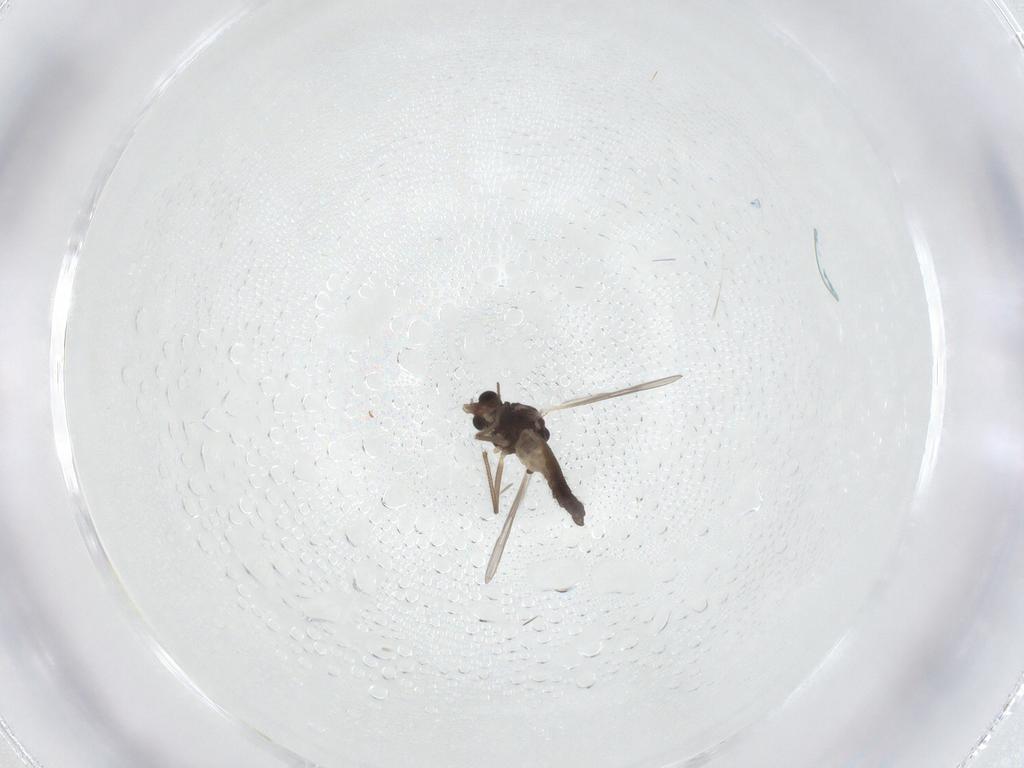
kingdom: Animalia
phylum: Arthropoda
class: Insecta
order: Diptera
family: Chironomidae
